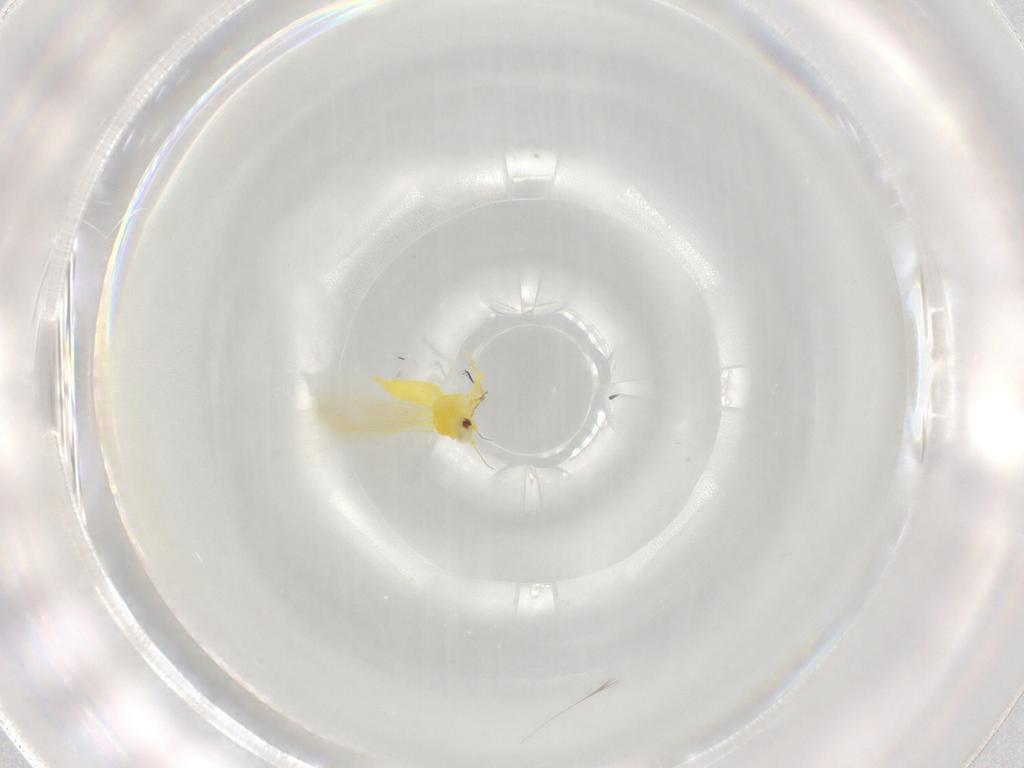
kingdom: Animalia
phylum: Arthropoda
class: Insecta
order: Hemiptera
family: Aleyrodidae
